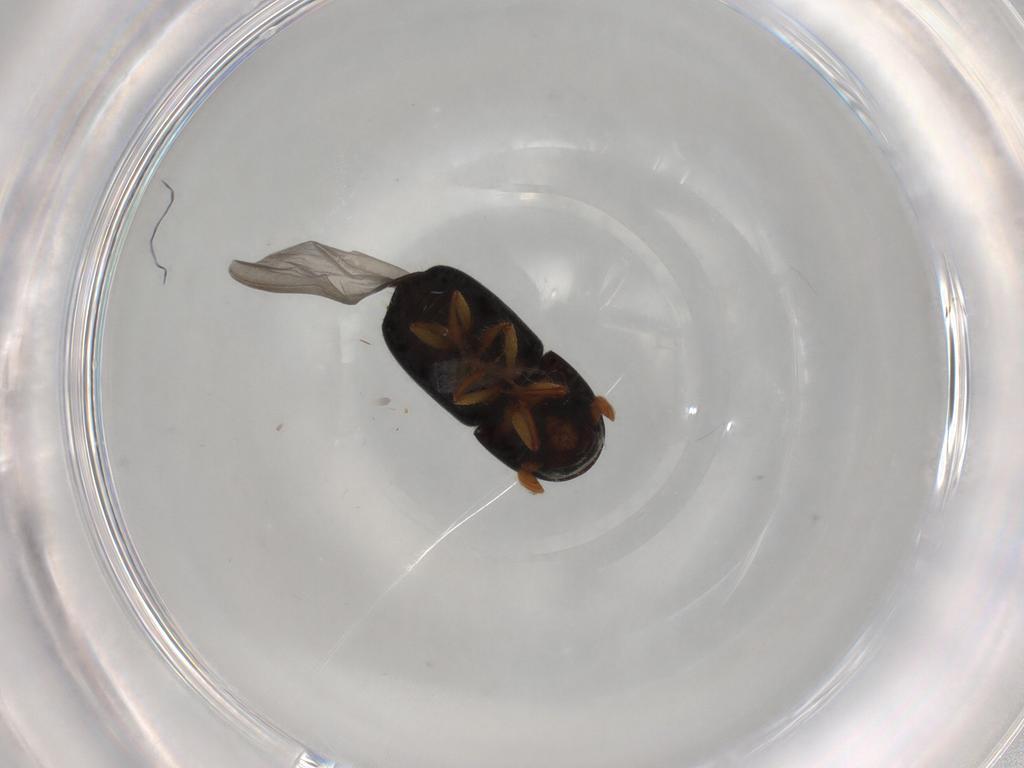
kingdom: Animalia
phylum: Arthropoda
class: Insecta
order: Coleoptera
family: Curculionidae
